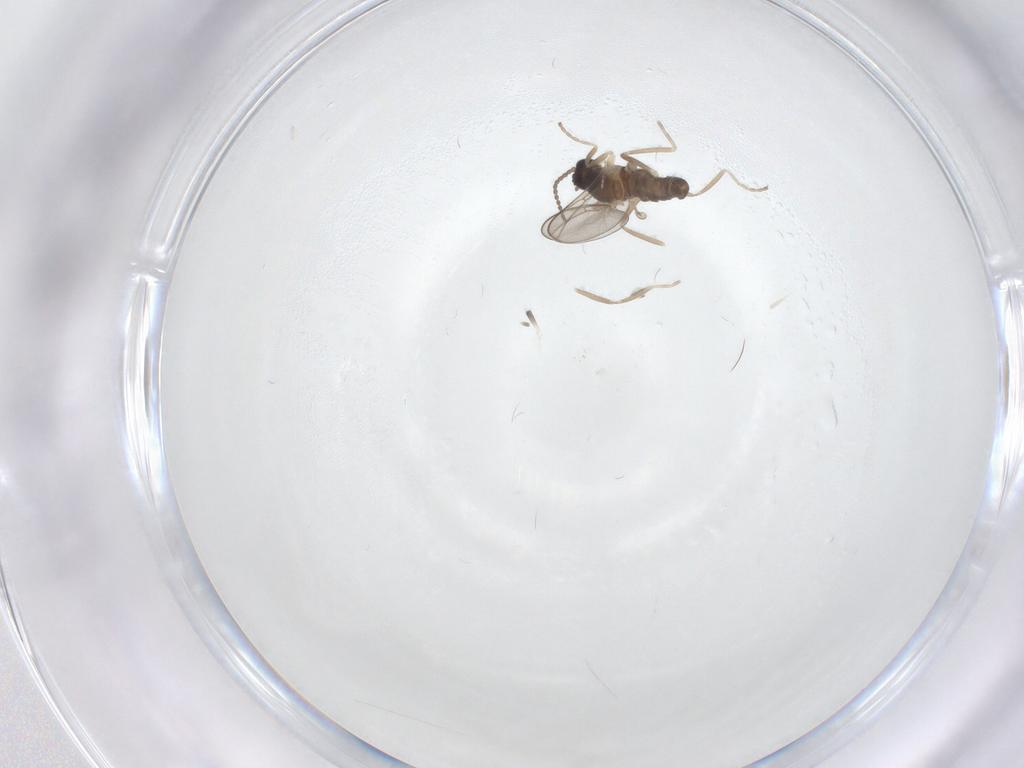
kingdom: Animalia
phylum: Arthropoda
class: Insecta
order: Diptera
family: Cecidomyiidae
